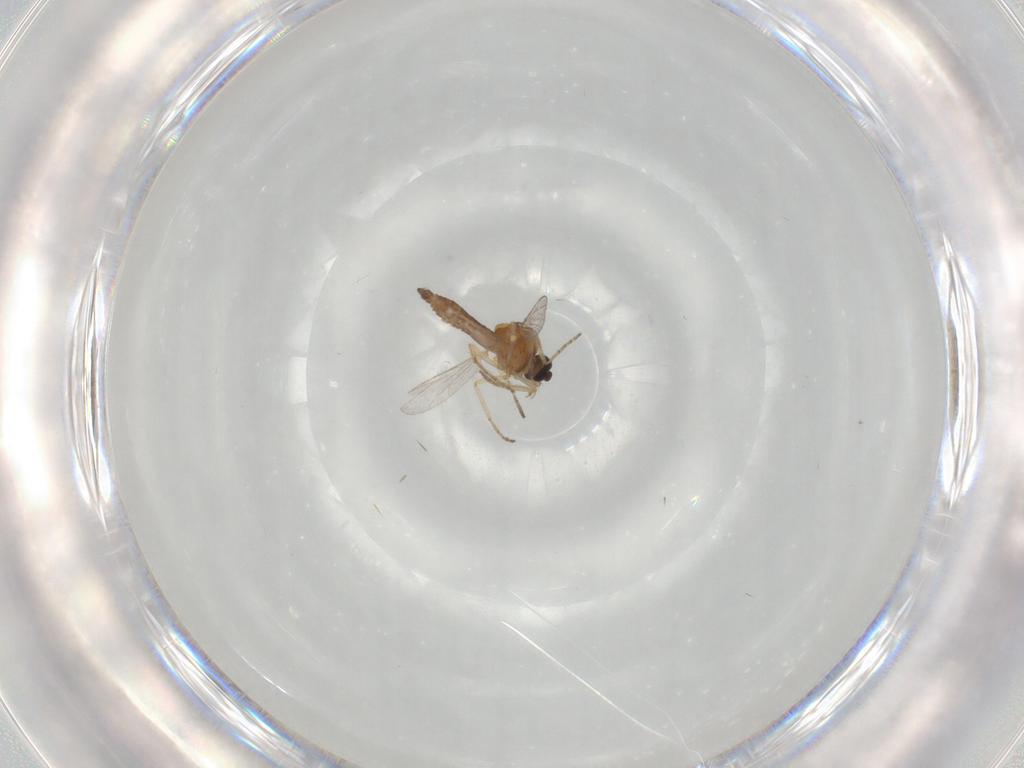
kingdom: Animalia
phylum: Arthropoda
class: Insecta
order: Diptera
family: Ceratopogonidae
